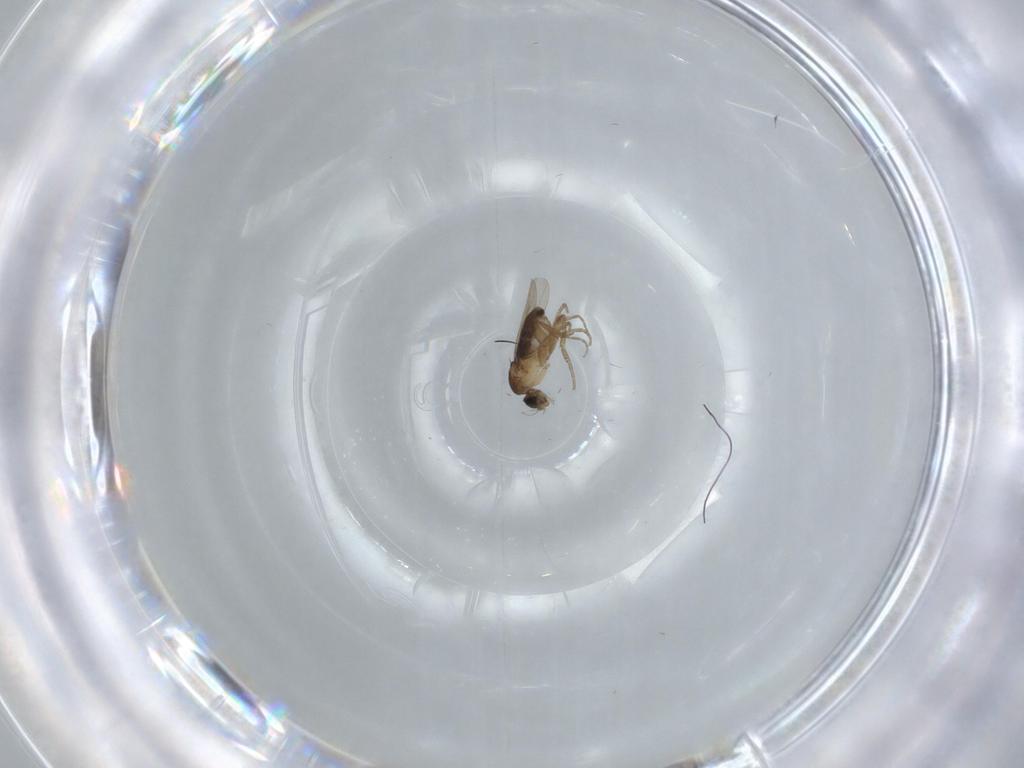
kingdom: Animalia
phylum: Arthropoda
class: Insecta
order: Diptera
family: Phoridae
